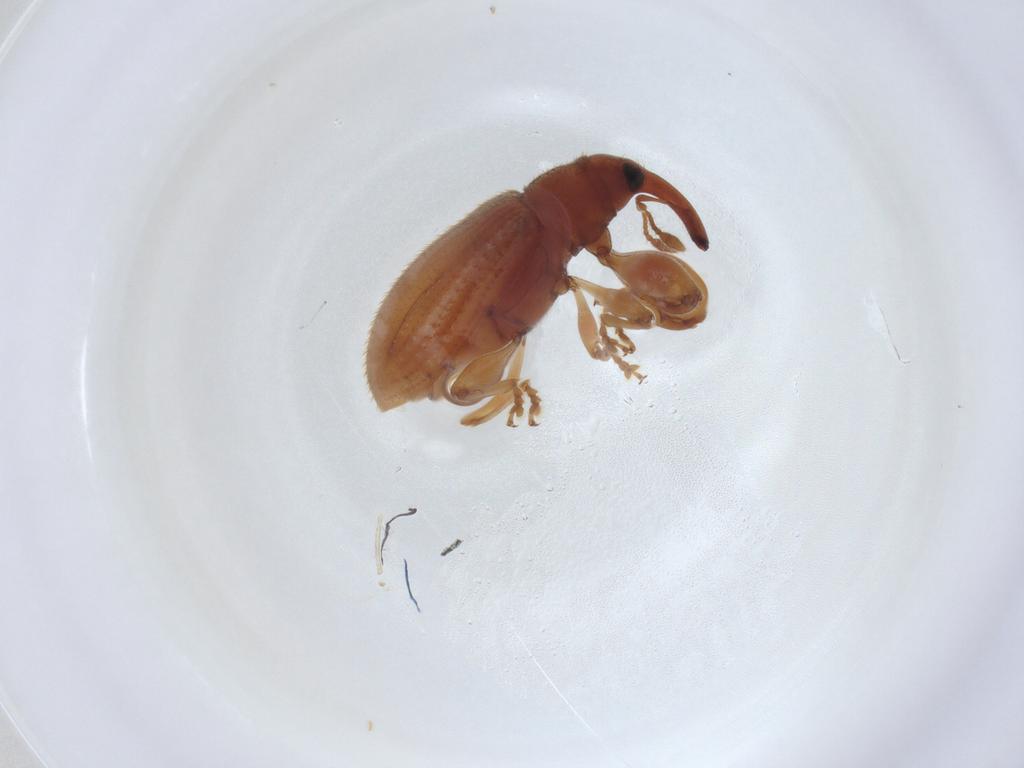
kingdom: Animalia
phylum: Arthropoda
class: Insecta
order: Coleoptera
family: Curculionidae
